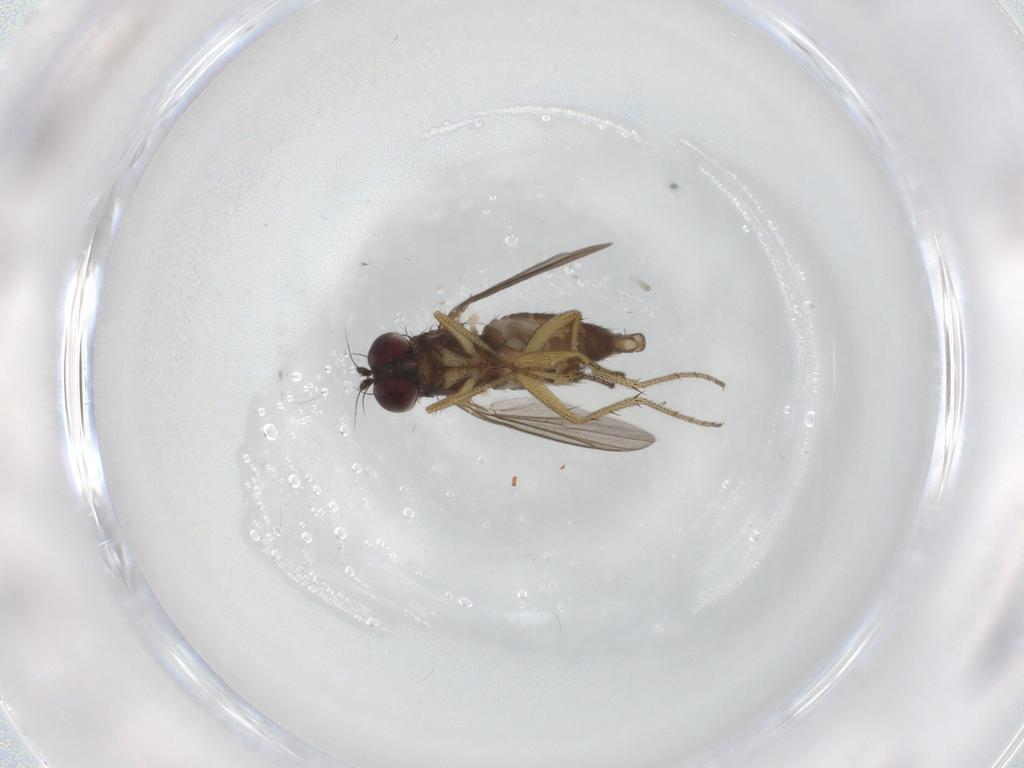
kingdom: Animalia
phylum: Arthropoda
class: Insecta
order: Diptera
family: Dolichopodidae
